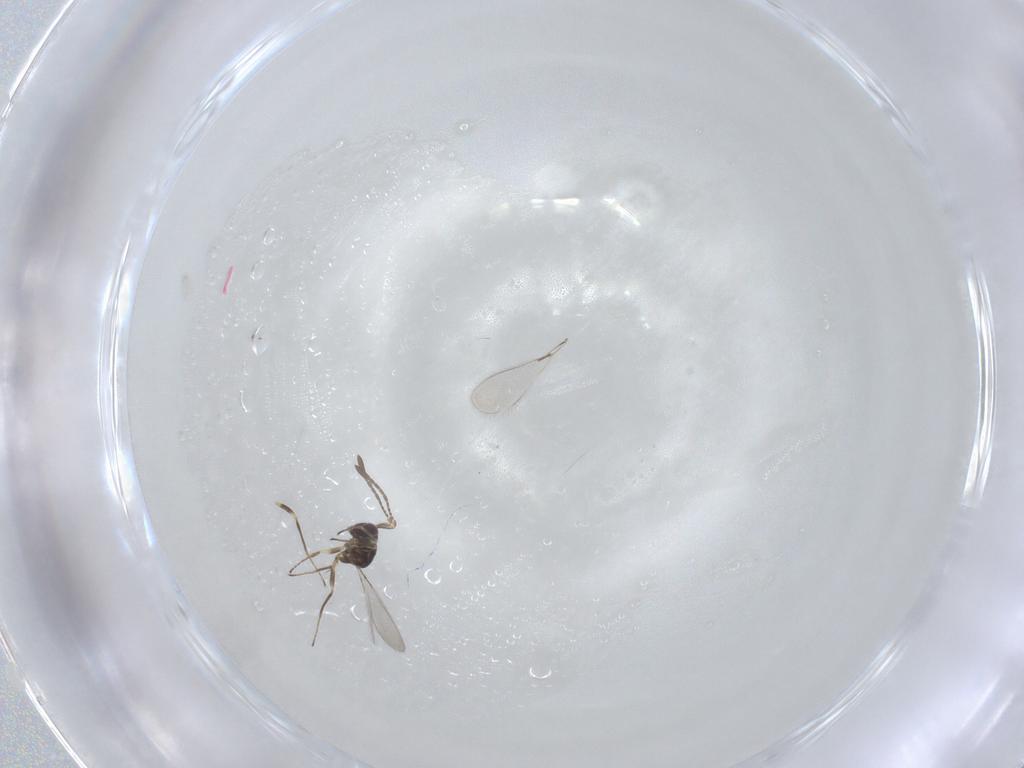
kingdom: Animalia
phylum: Arthropoda
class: Insecta
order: Hymenoptera
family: Mymaridae
